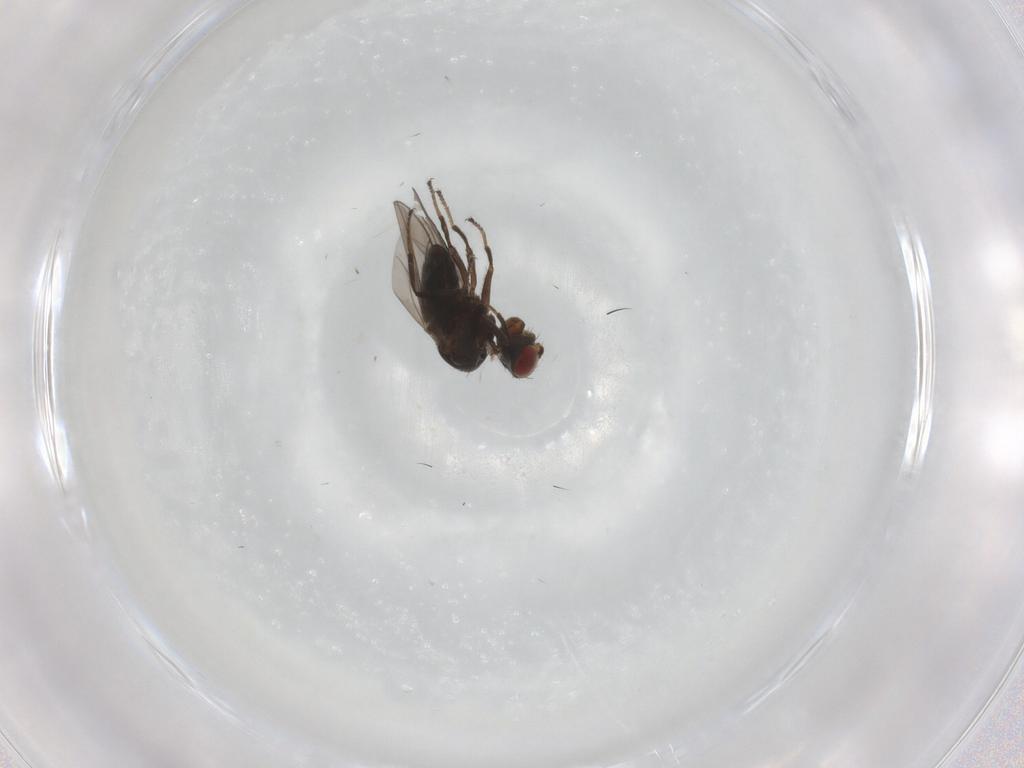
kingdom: Animalia
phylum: Arthropoda
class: Insecta
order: Diptera
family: Ephydridae
